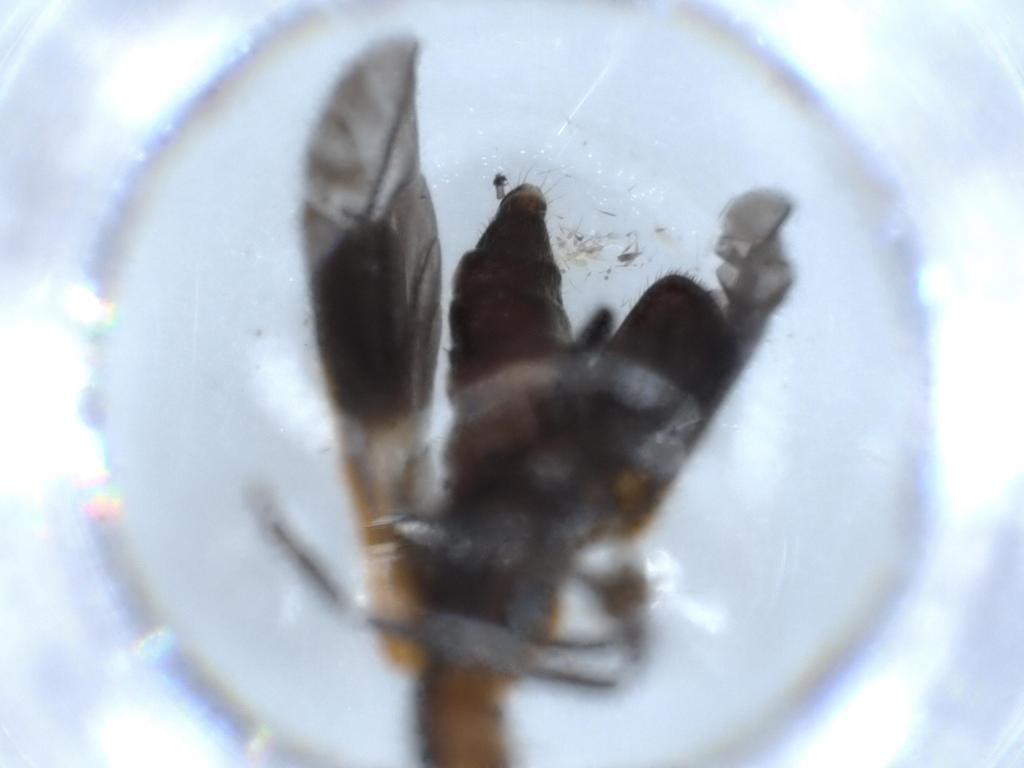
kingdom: Animalia
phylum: Arthropoda
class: Insecta
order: Coleoptera
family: Cleridae
